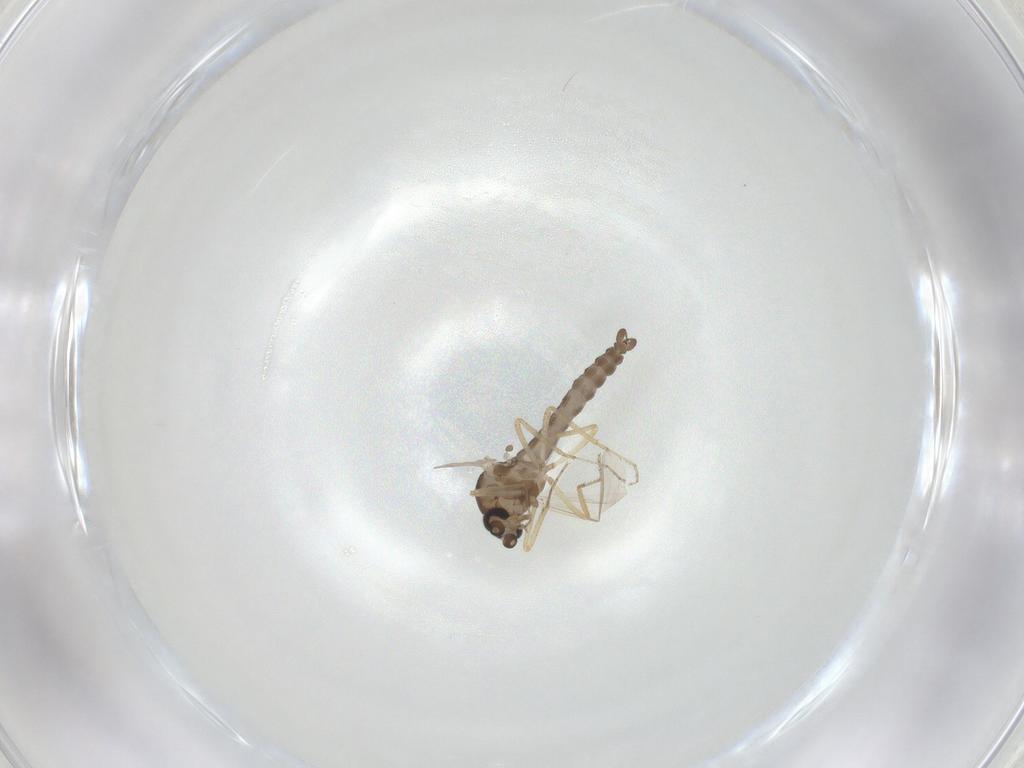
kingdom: Animalia
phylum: Arthropoda
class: Insecta
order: Diptera
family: Ceratopogonidae
